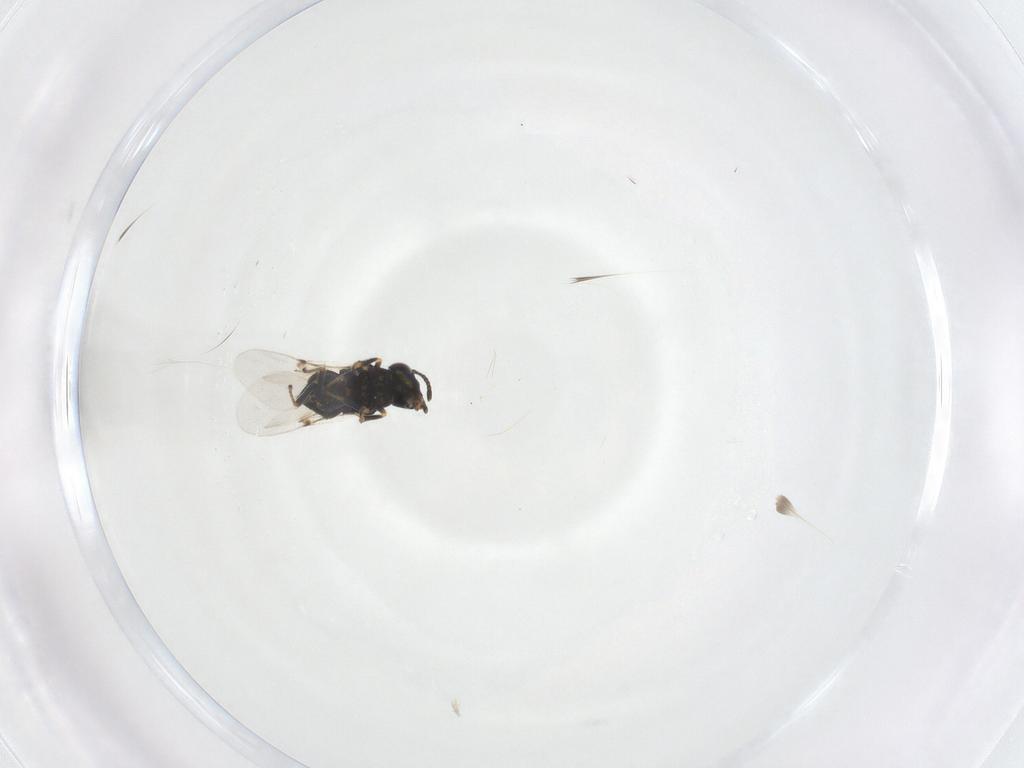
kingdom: Animalia
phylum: Arthropoda
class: Insecta
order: Hymenoptera
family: Encyrtidae
